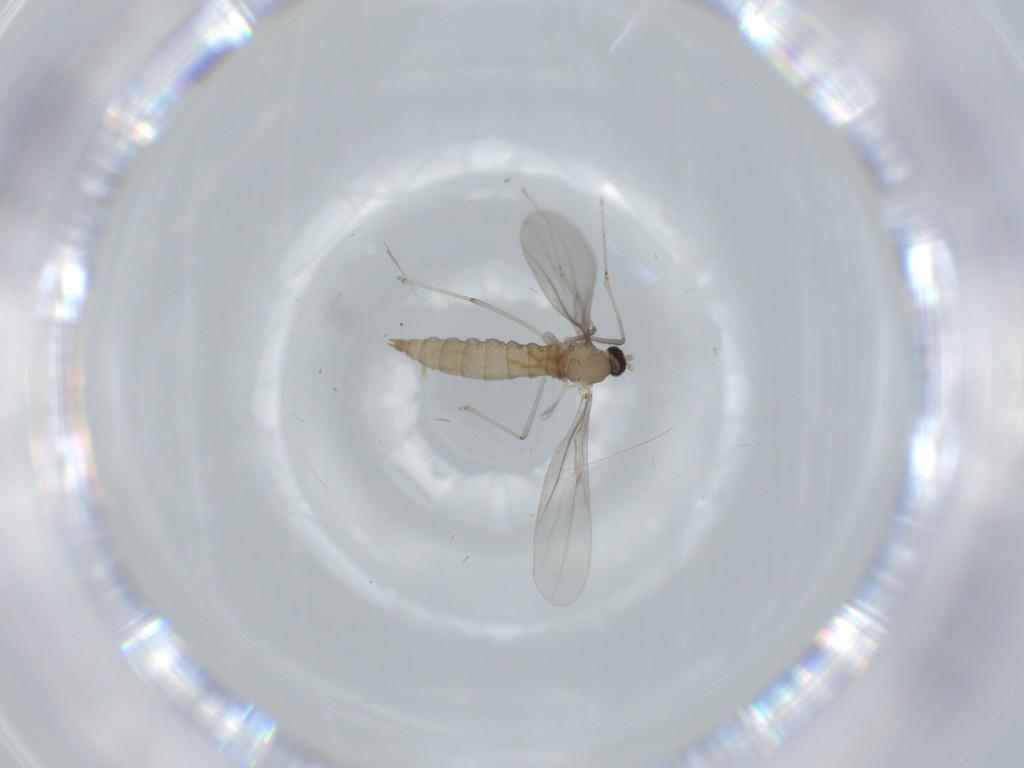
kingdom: Animalia
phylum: Arthropoda
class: Insecta
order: Diptera
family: Cecidomyiidae
